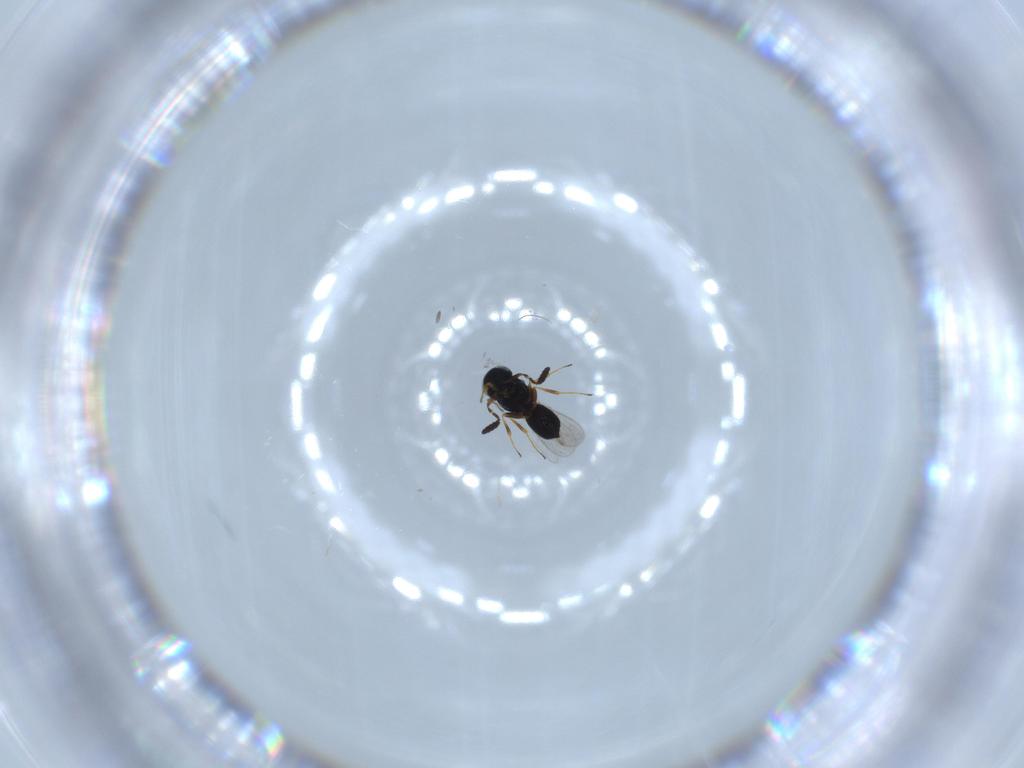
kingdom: Animalia
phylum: Arthropoda
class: Insecta
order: Hymenoptera
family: Scelionidae
